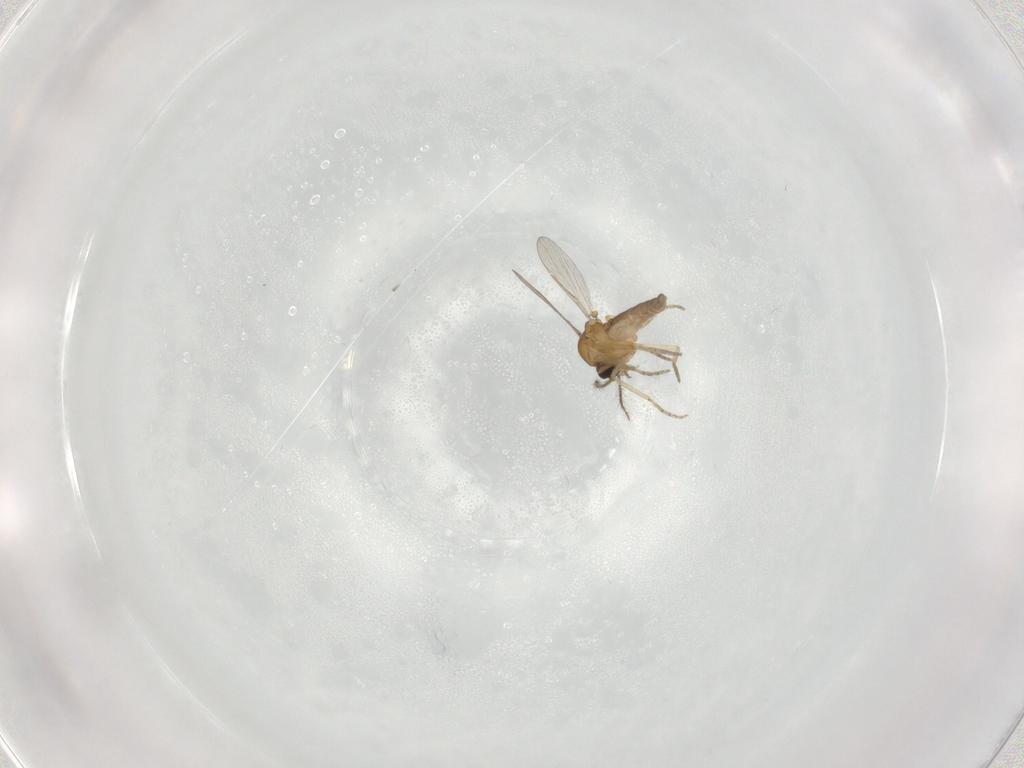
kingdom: Animalia
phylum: Arthropoda
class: Insecta
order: Diptera
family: Limoniidae
